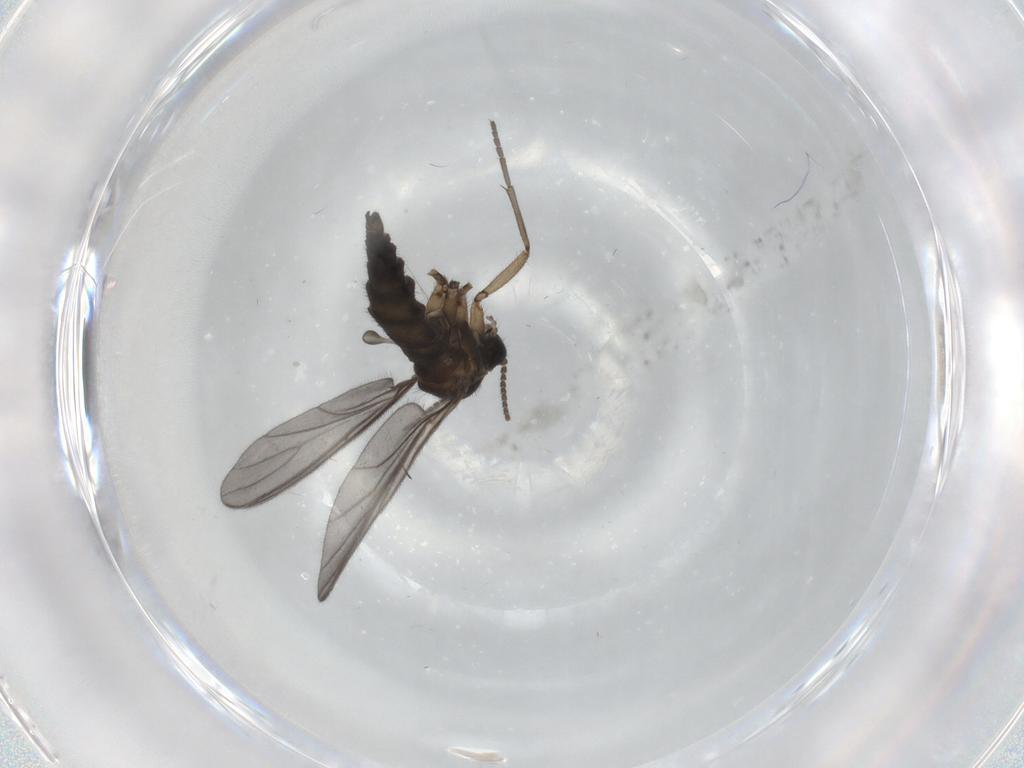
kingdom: Animalia
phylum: Arthropoda
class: Insecta
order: Diptera
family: Sciaridae
